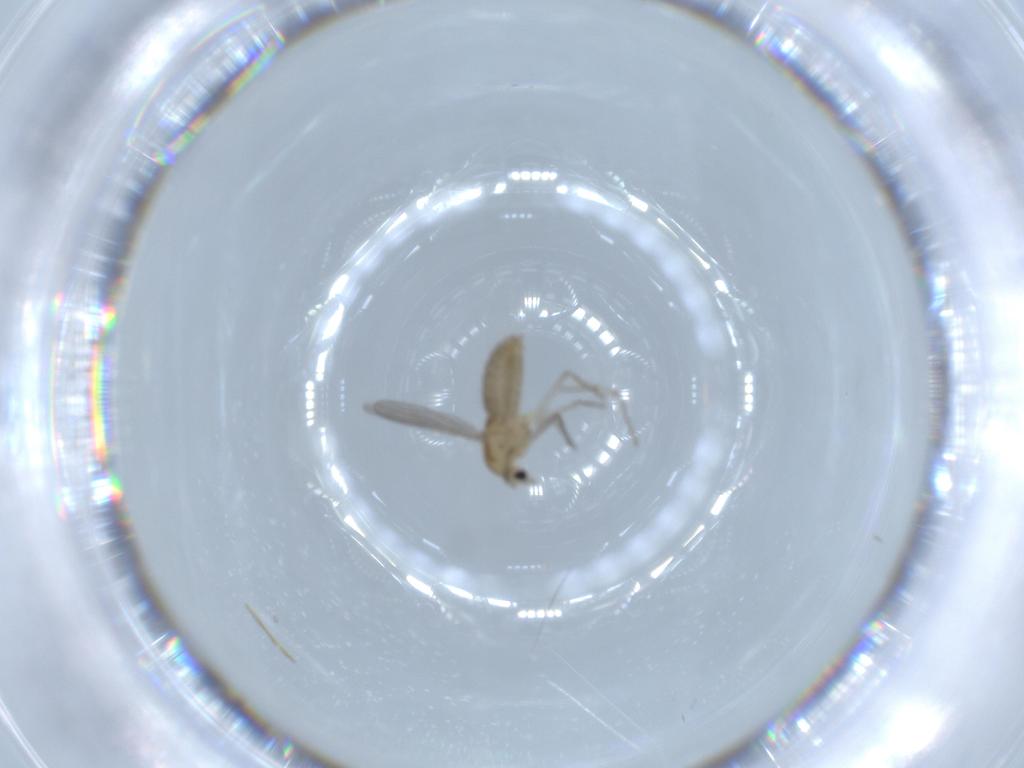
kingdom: Animalia
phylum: Arthropoda
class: Insecta
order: Diptera
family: Chironomidae
